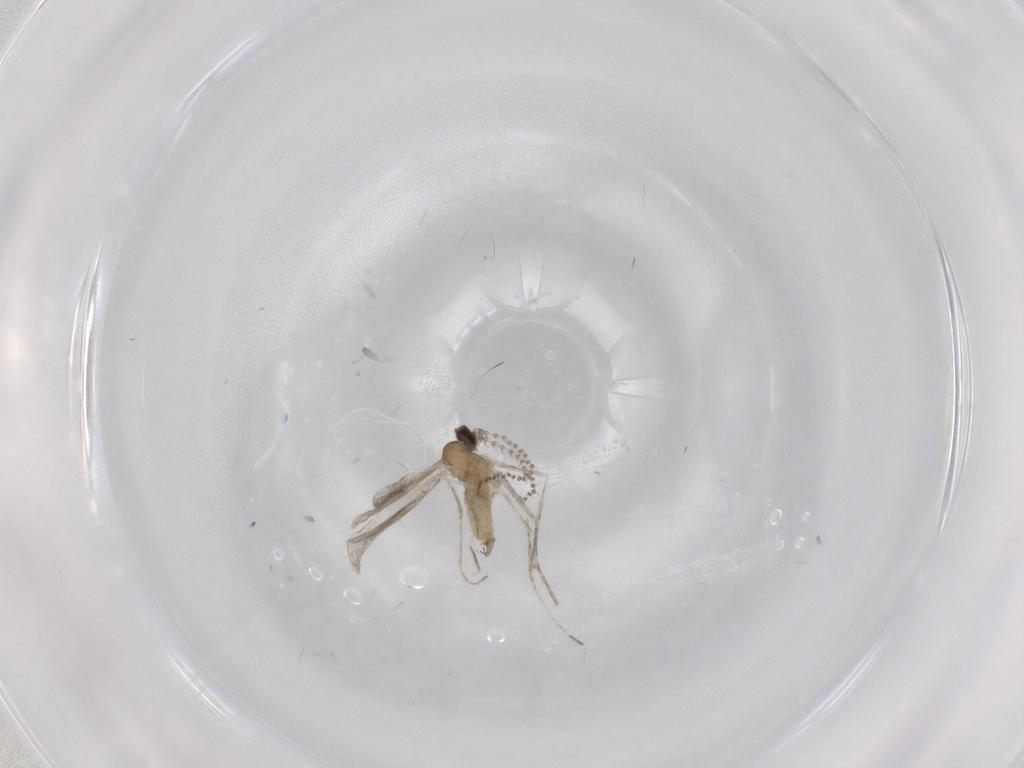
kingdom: Animalia
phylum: Arthropoda
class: Insecta
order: Diptera
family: Cecidomyiidae
